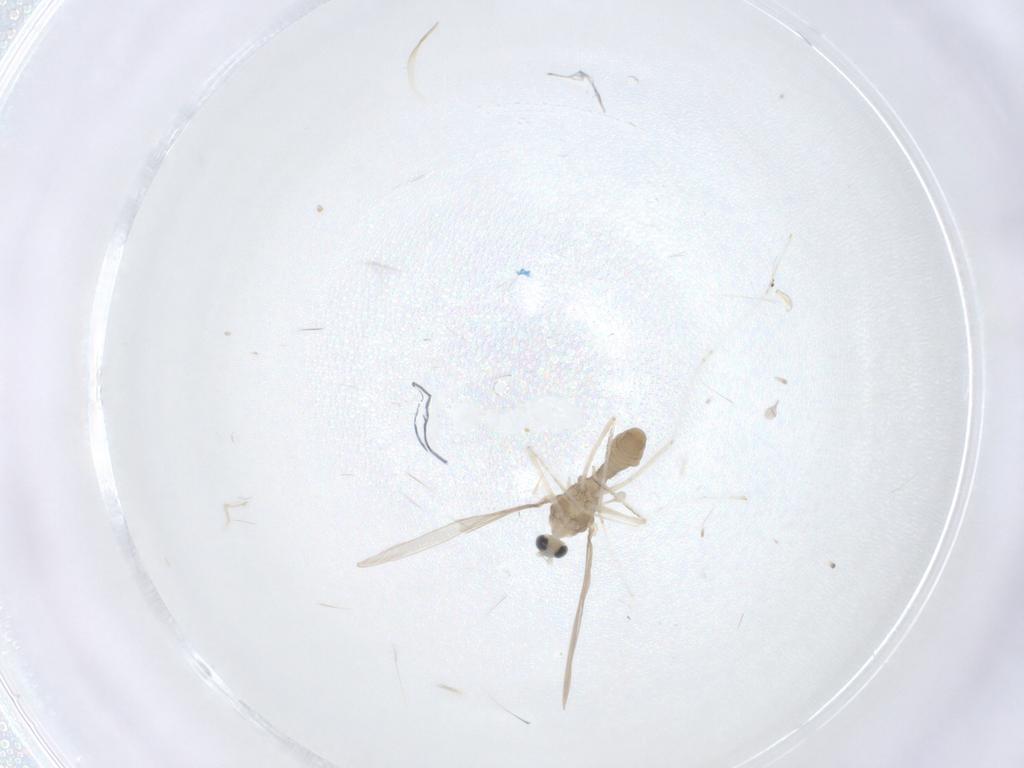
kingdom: Animalia
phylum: Arthropoda
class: Insecta
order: Diptera
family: Cecidomyiidae
